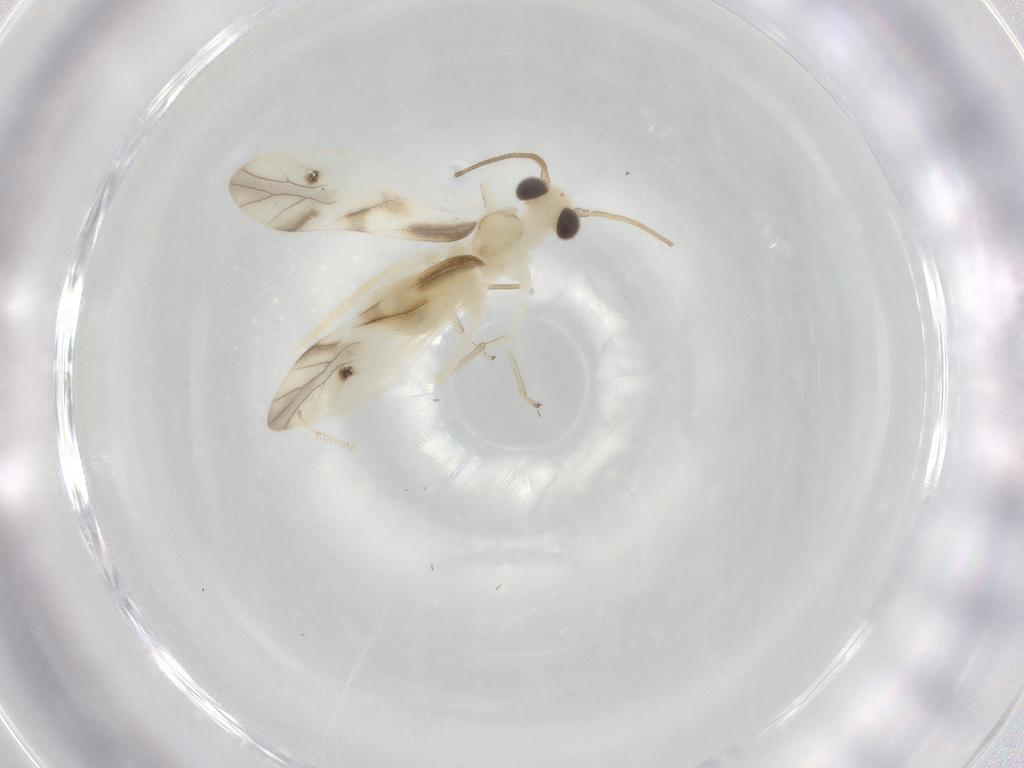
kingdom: Animalia
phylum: Arthropoda
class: Insecta
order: Psocodea
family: Caeciliusidae
